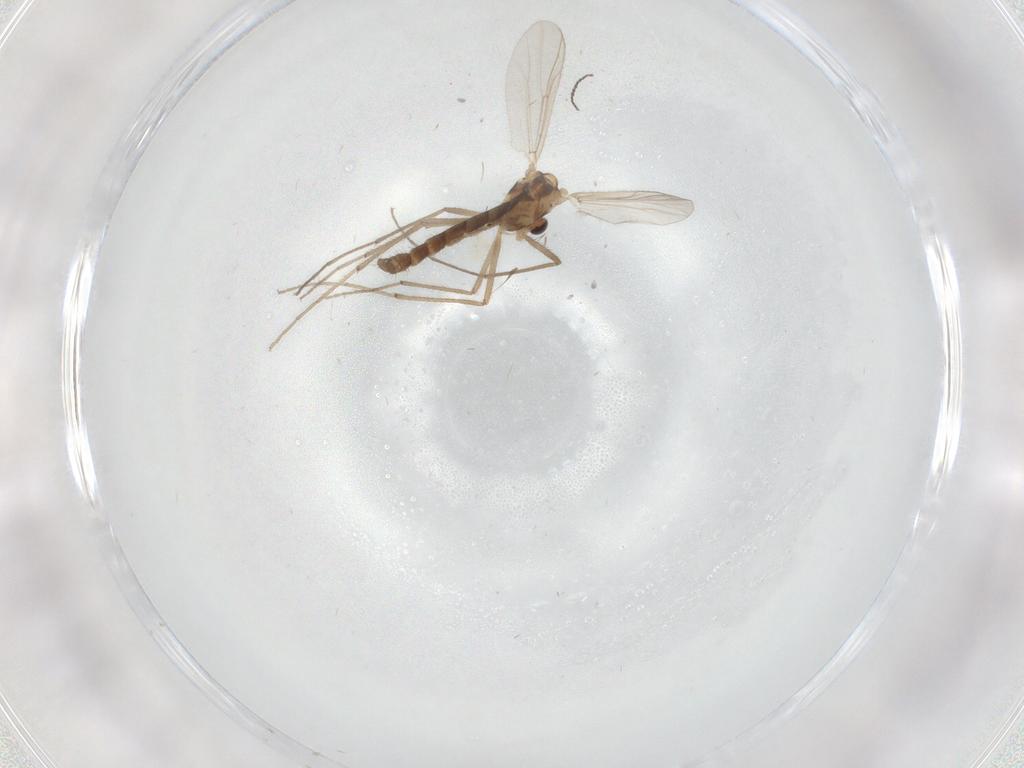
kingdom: Animalia
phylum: Arthropoda
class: Insecta
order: Diptera
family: Chironomidae
